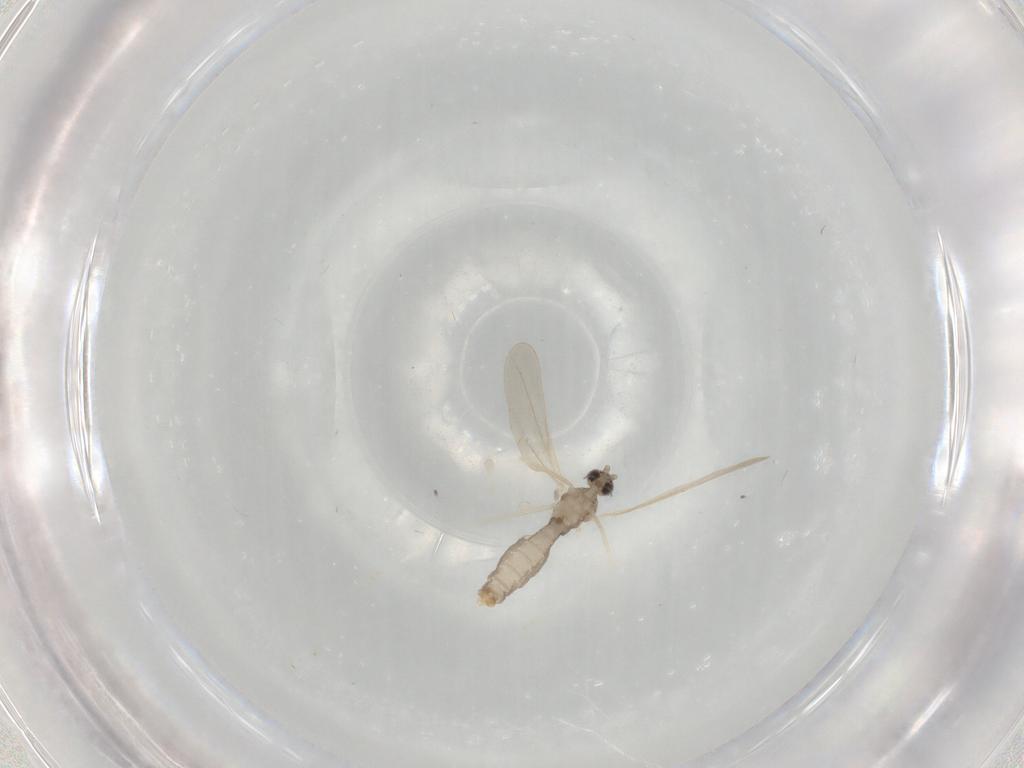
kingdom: Animalia
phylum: Arthropoda
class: Insecta
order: Diptera
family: Cecidomyiidae
